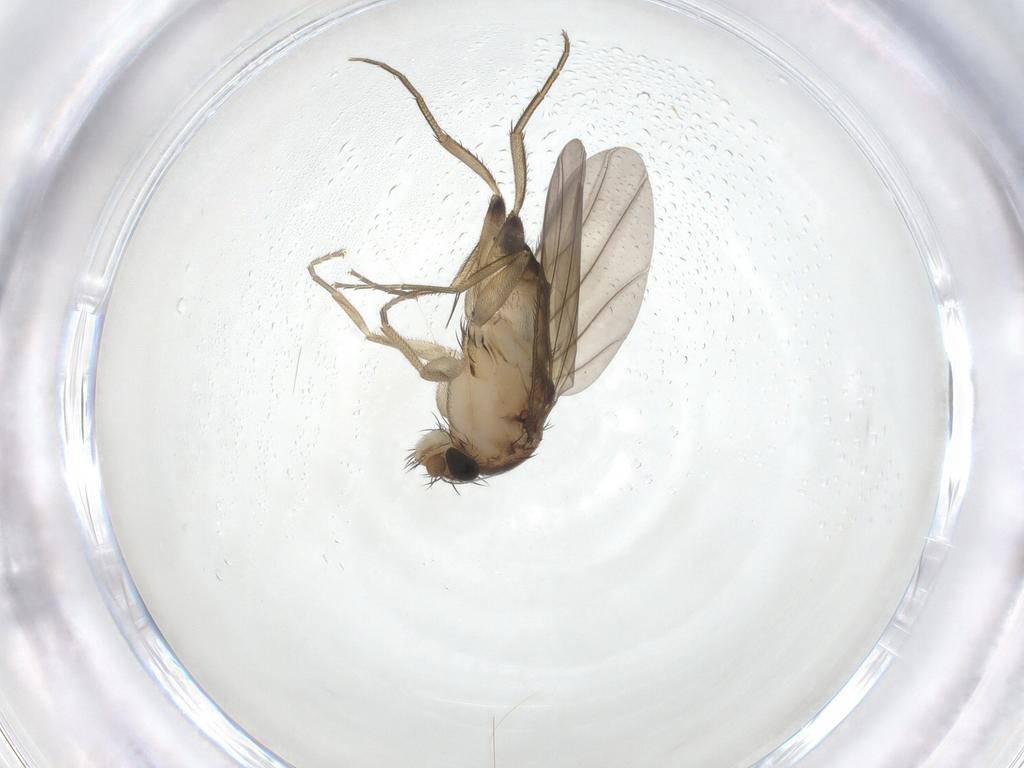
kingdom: Animalia
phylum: Arthropoda
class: Insecta
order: Diptera
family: Phoridae
